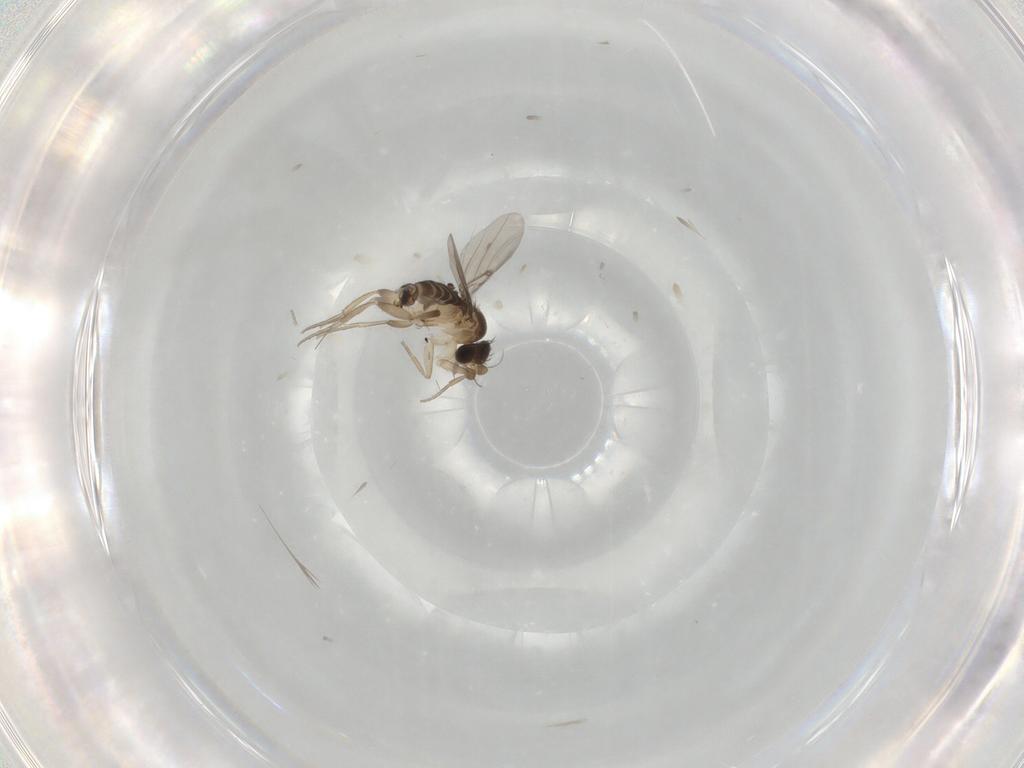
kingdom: Animalia
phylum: Arthropoda
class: Insecta
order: Diptera
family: Phoridae
